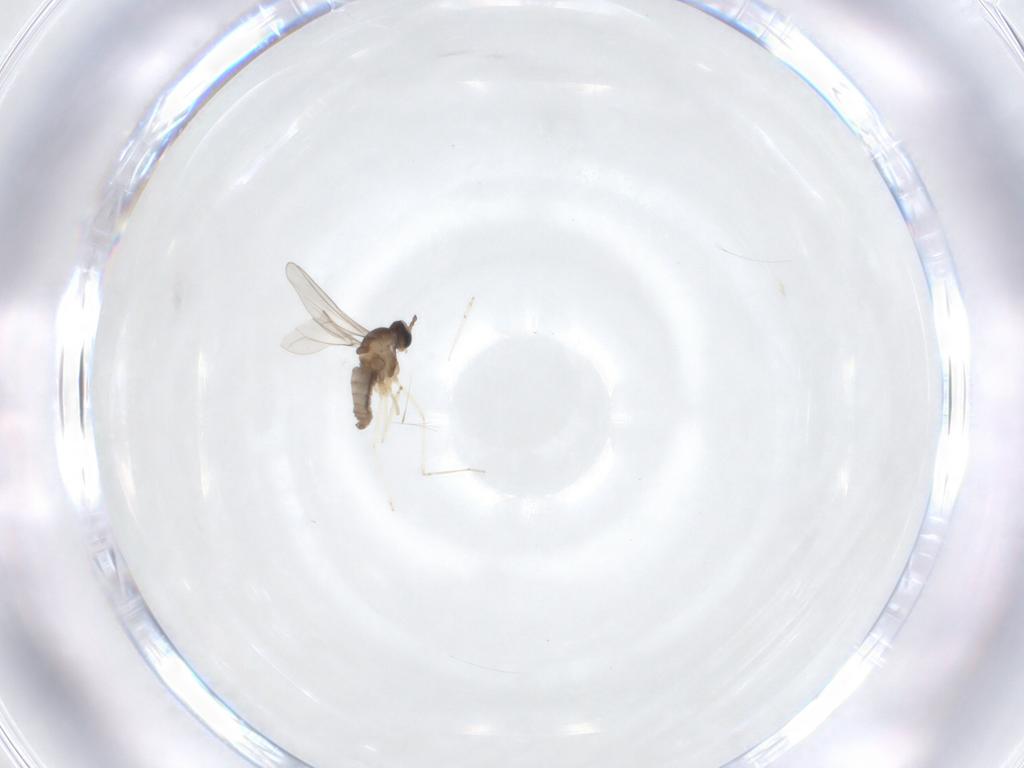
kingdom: Animalia
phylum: Arthropoda
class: Insecta
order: Diptera
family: Cecidomyiidae
